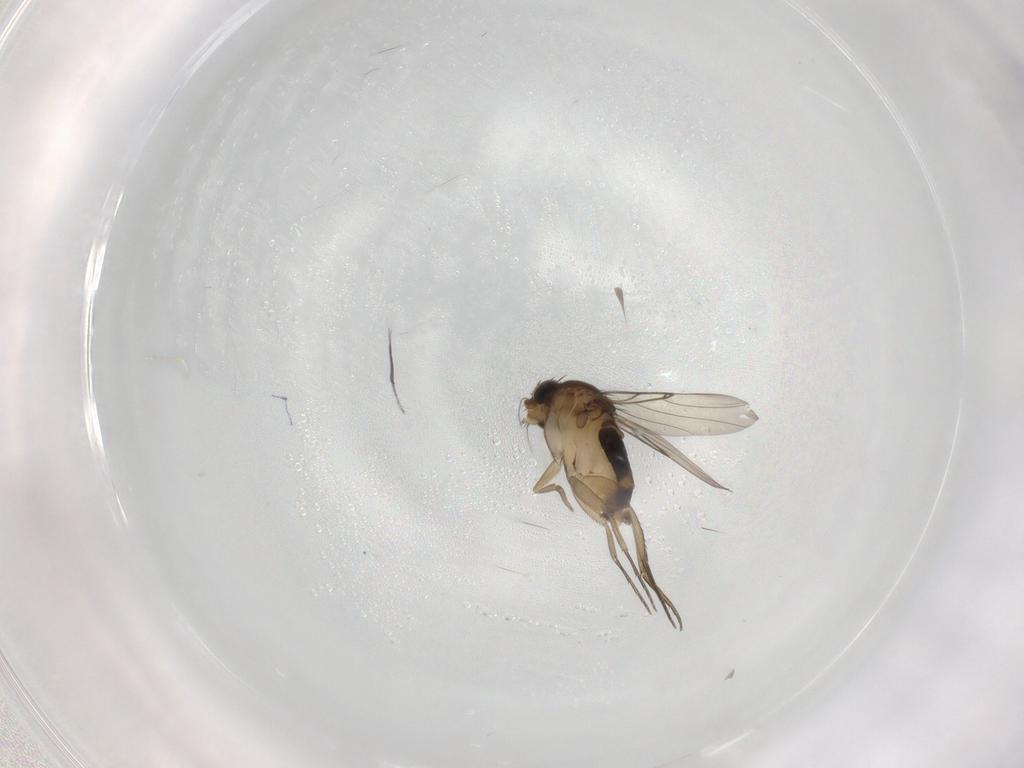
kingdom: Animalia
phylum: Arthropoda
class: Insecta
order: Diptera
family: Phoridae
